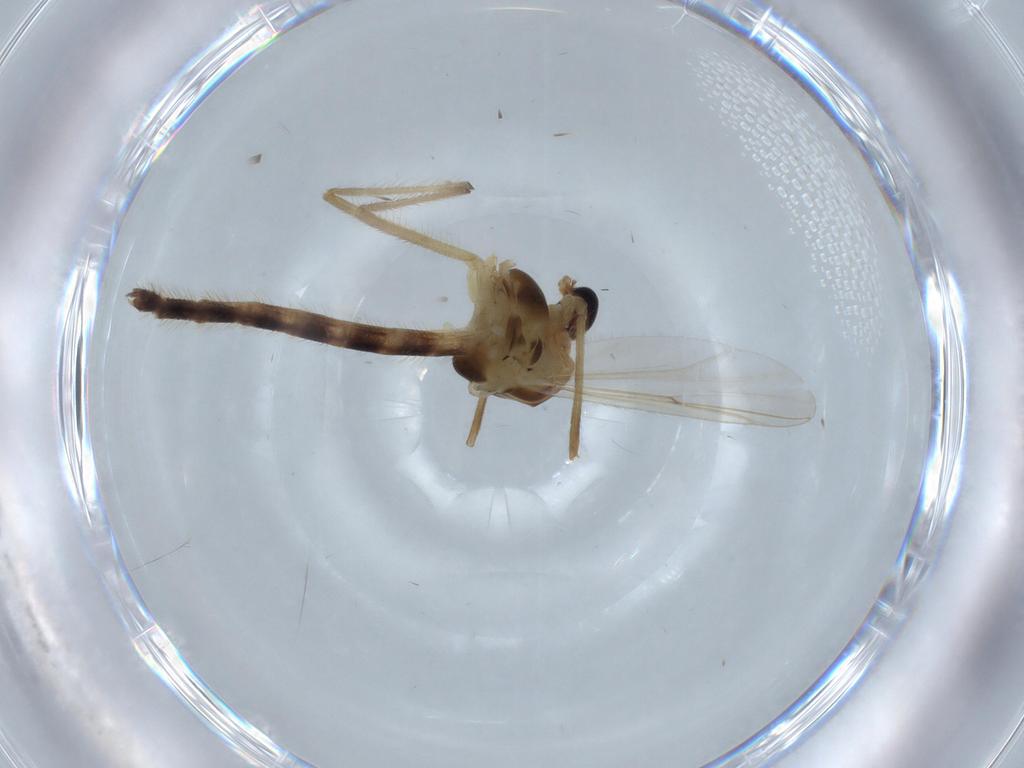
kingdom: Animalia
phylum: Arthropoda
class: Insecta
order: Diptera
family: Chironomidae
